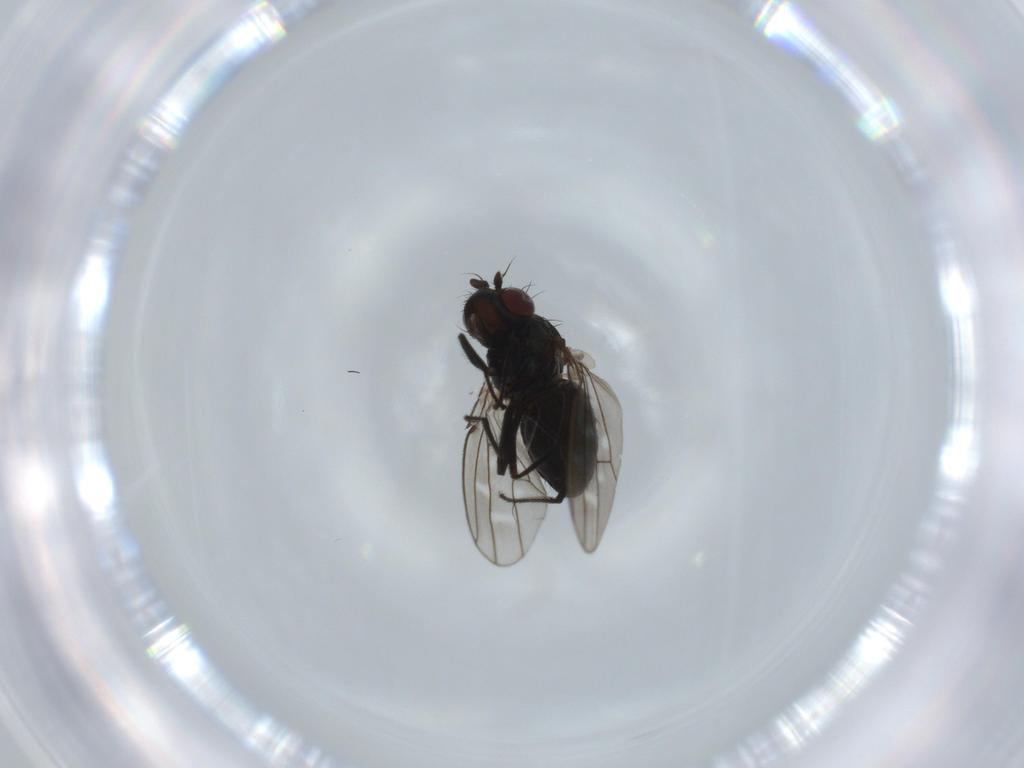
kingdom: Animalia
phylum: Arthropoda
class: Insecta
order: Diptera
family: Ephydridae
